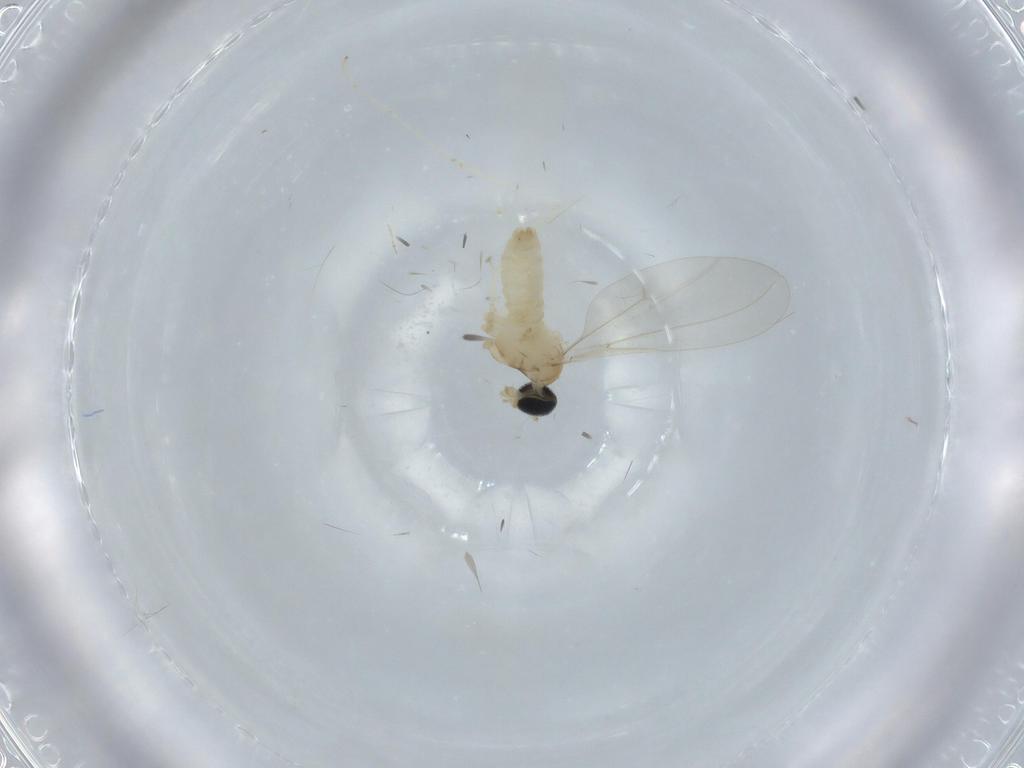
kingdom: Animalia
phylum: Arthropoda
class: Insecta
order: Diptera
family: Cecidomyiidae
